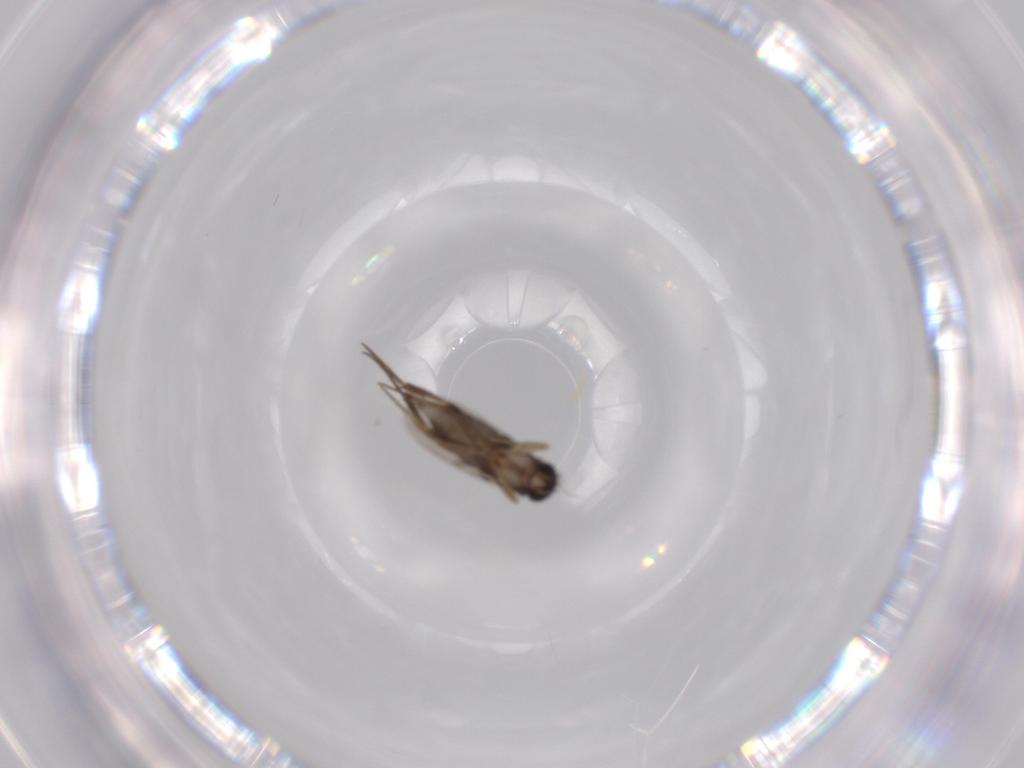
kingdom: Animalia
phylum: Arthropoda
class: Insecta
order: Diptera
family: Phoridae
